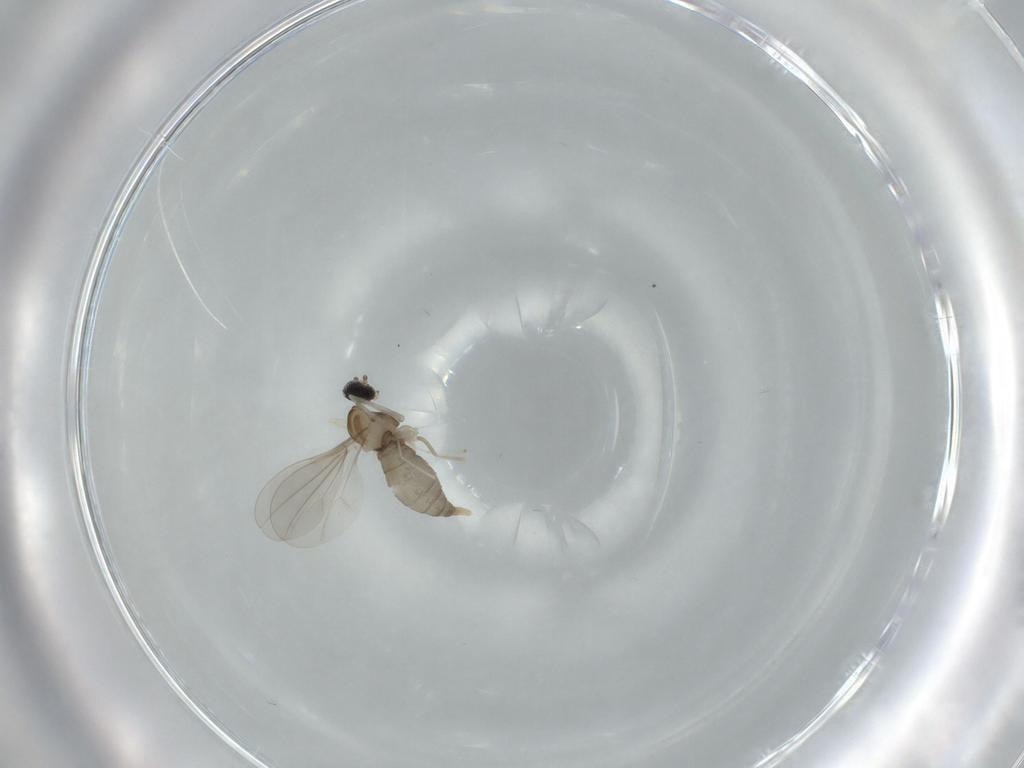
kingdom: Animalia
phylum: Arthropoda
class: Insecta
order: Diptera
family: Cecidomyiidae
